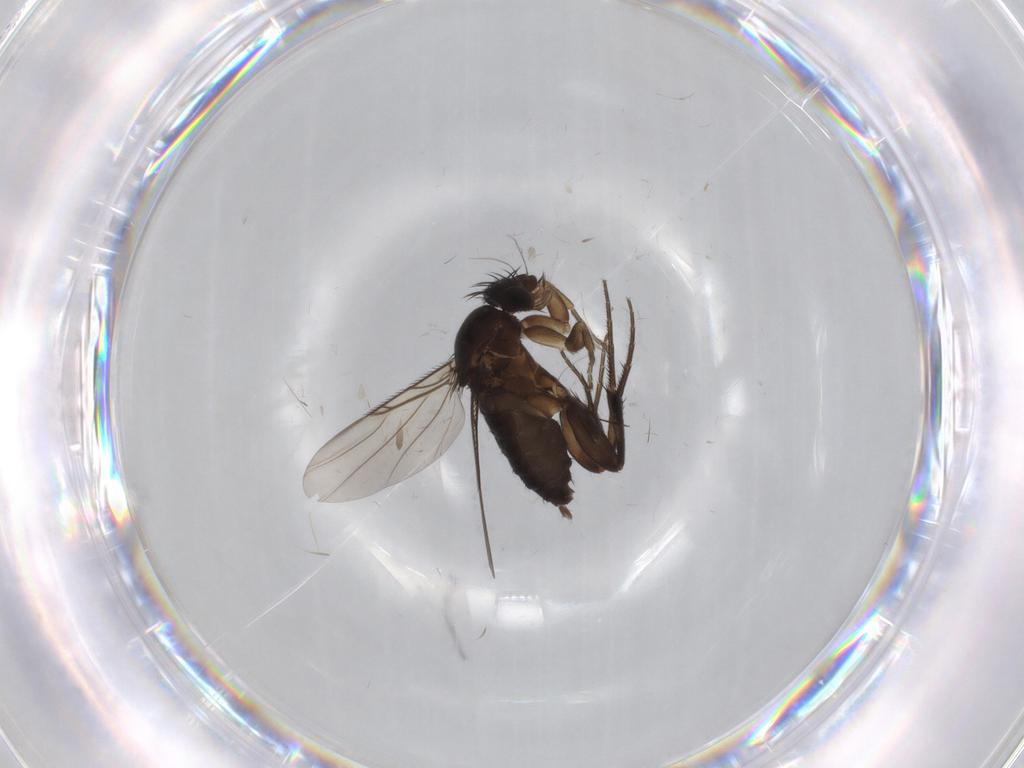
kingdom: Animalia
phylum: Arthropoda
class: Insecta
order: Diptera
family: Phoridae
